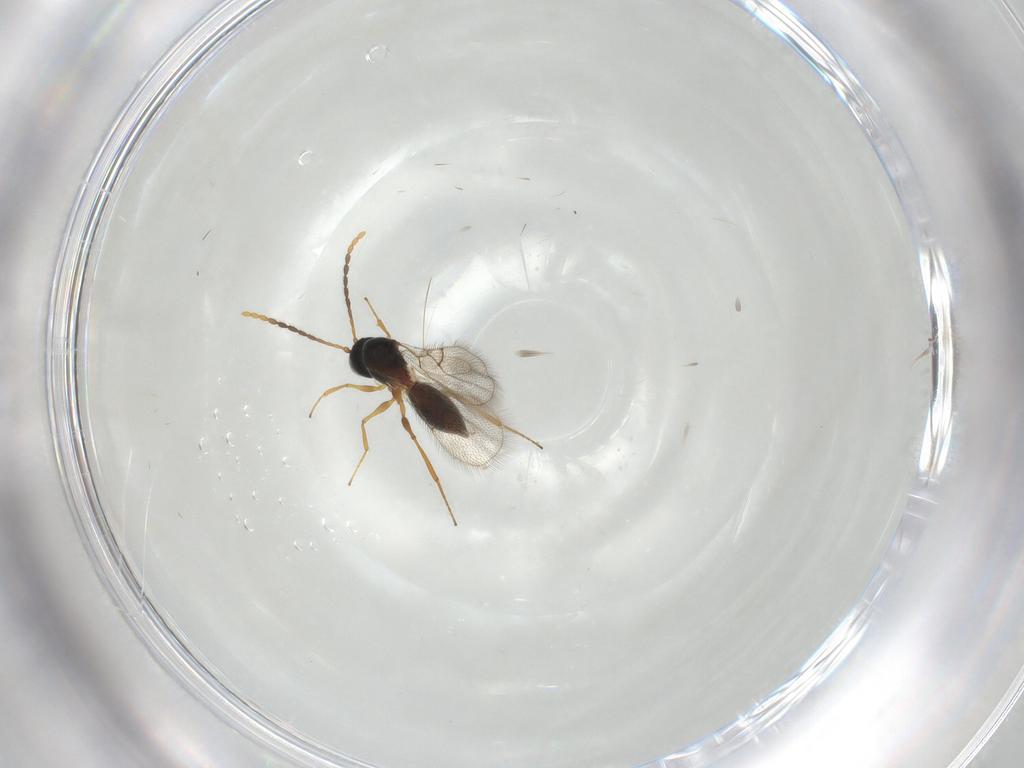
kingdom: Animalia
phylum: Arthropoda
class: Insecta
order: Hymenoptera
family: Figitidae
